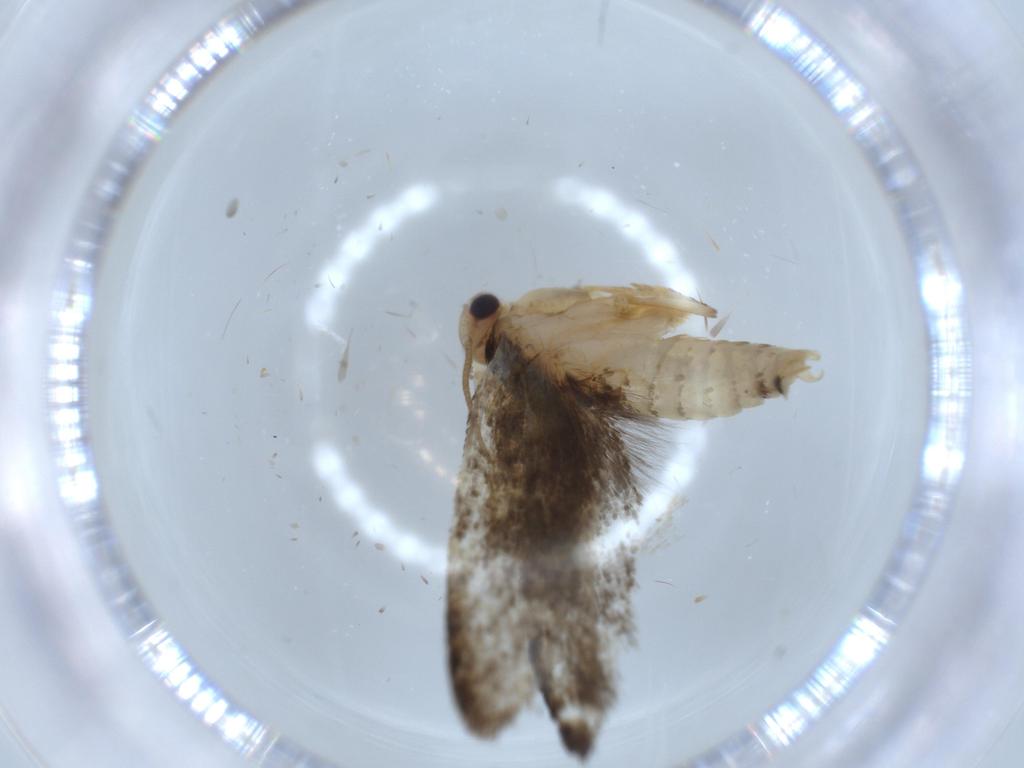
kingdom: Animalia
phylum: Arthropoda
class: Insecta
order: Lepidoptera
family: Tineidae
